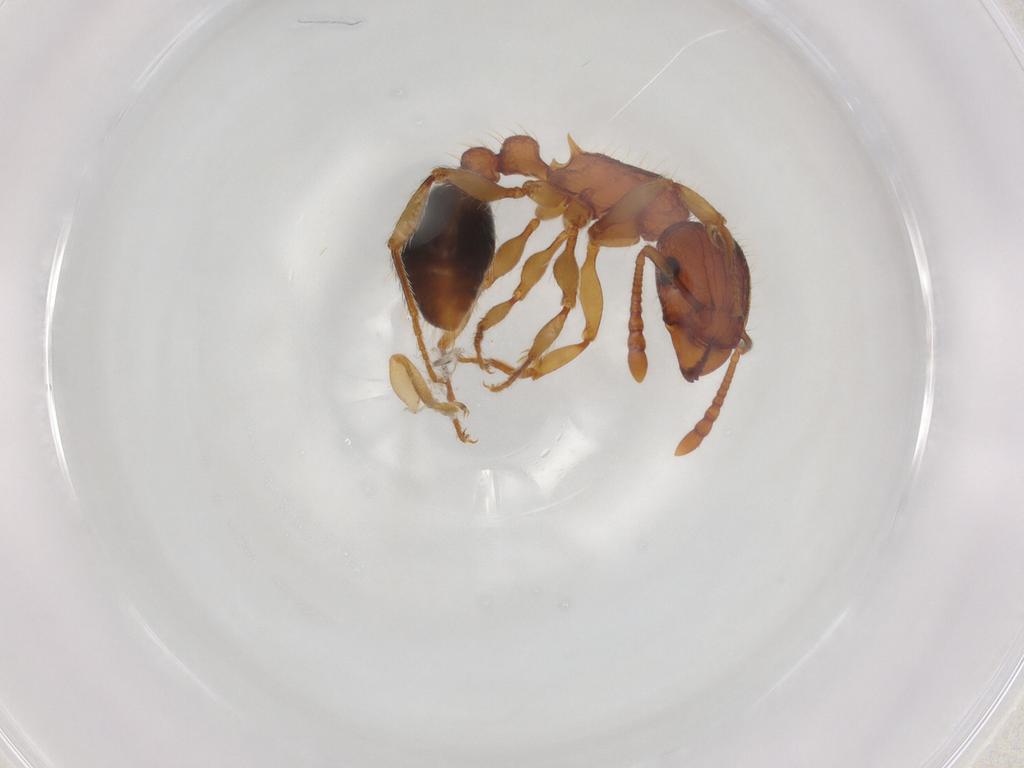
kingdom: Animalia
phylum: Arthropoda
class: Insecta
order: Hymenoptera
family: Formicidae
